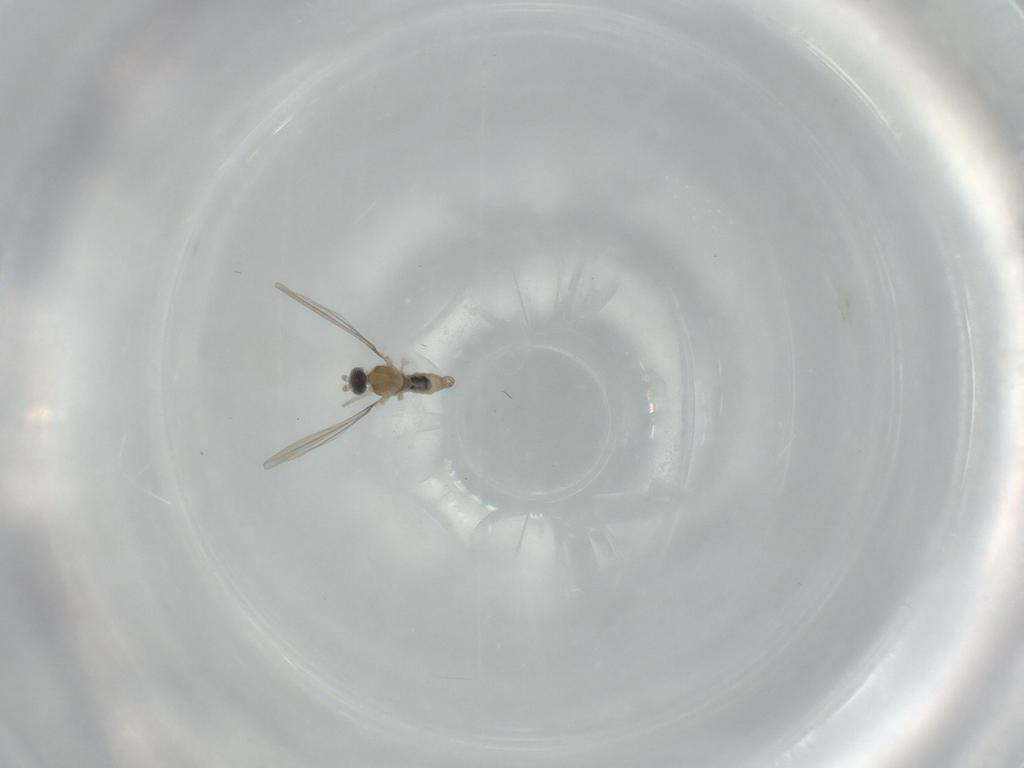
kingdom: Animalia
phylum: Arthropoda
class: Insecta
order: Diptera
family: Cecidomyiidae
